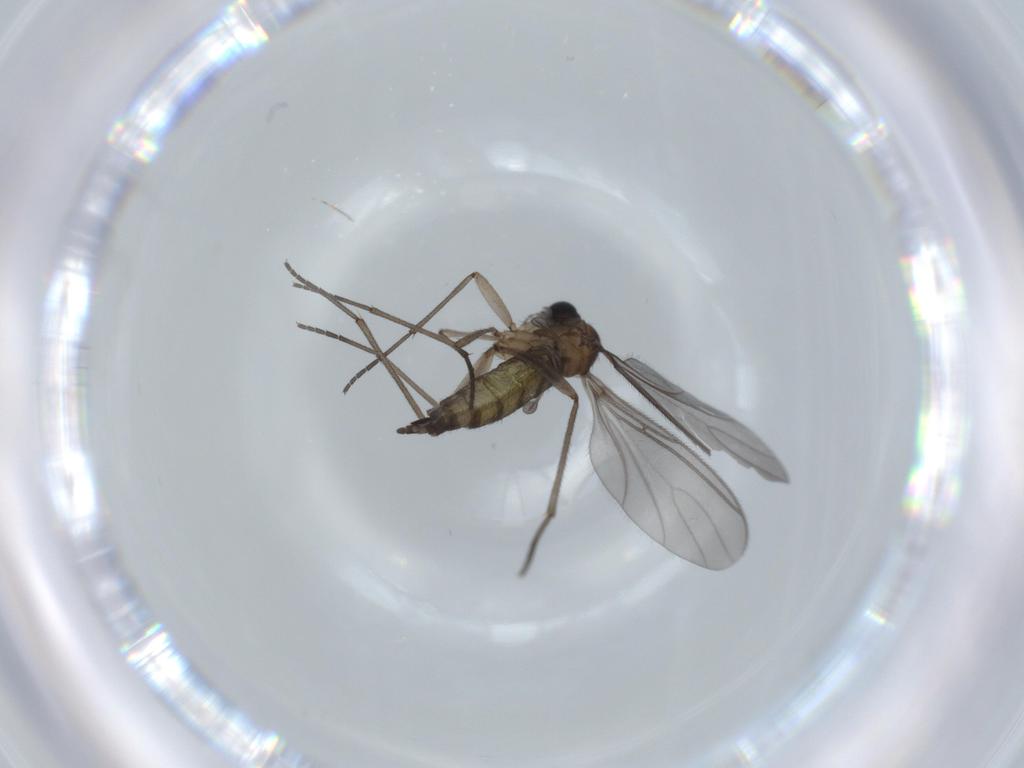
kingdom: Animalia
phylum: Arthropoda
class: Insecta
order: Diptera
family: Sciaridae
